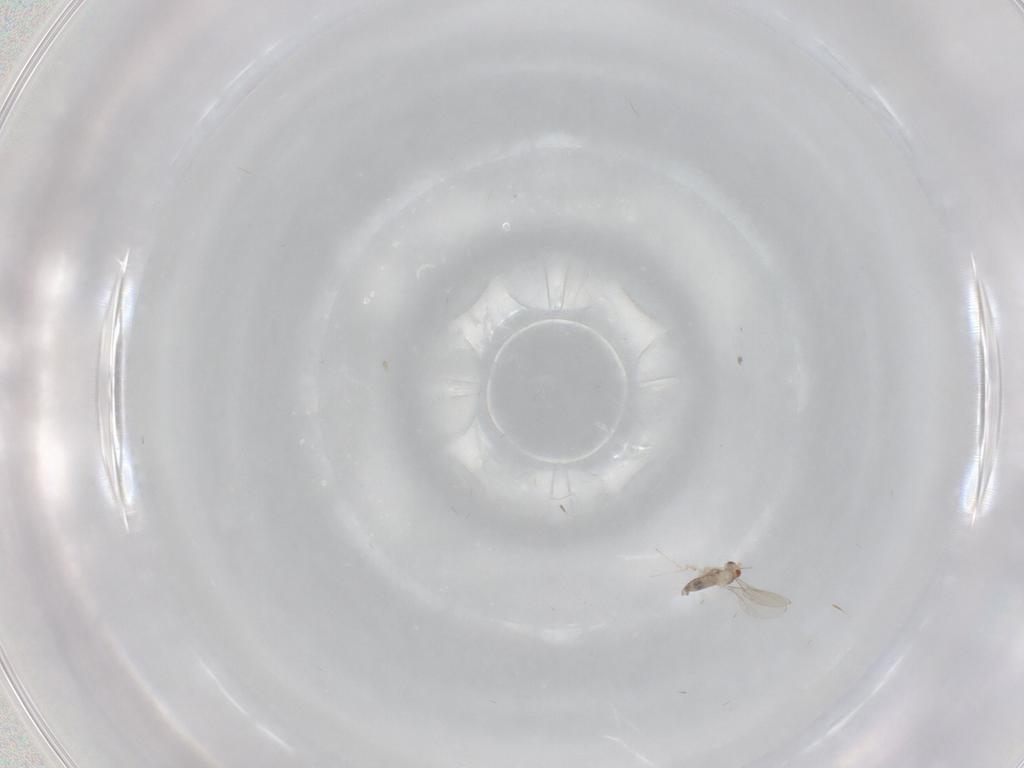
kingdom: Animalia
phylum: Arthropoda
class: Insecta
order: Diptera
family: Cecidomyiidae
